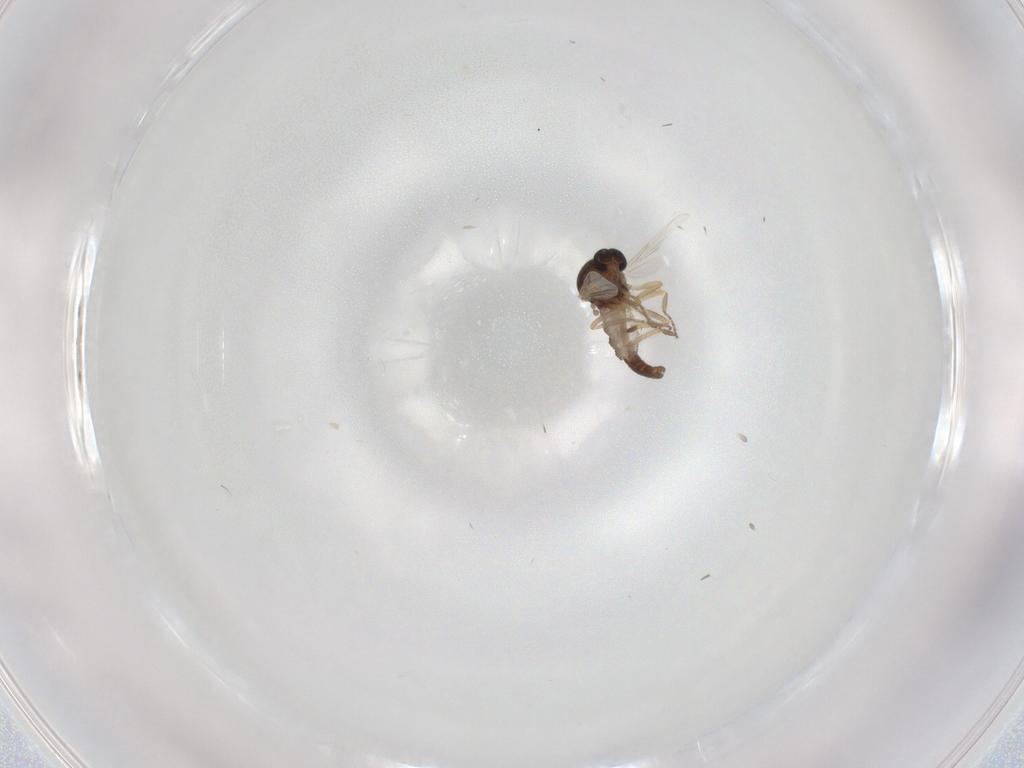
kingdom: Animalia
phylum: Arthropoda
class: Insecta
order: Diptera
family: Ceratopogonidae
